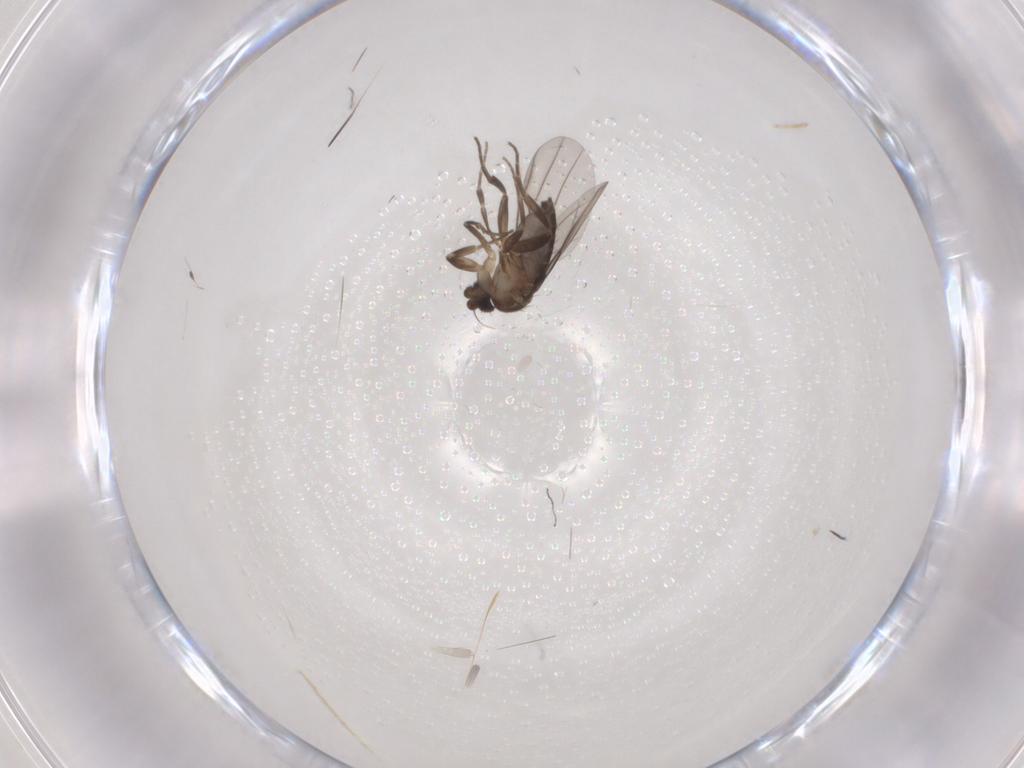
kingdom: Animalia
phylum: Arthropoda
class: Insecta
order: Diptera
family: Phoridae
